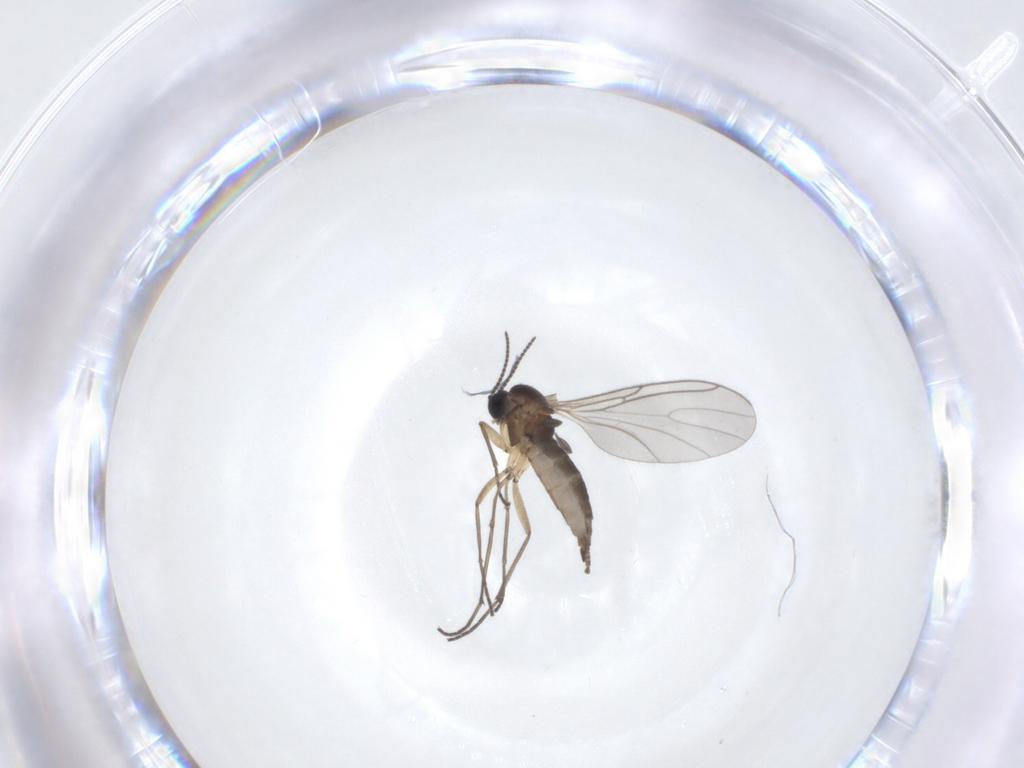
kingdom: Animalia
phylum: Arthropoda
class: Insecta
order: Diptera
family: Sciaridae
